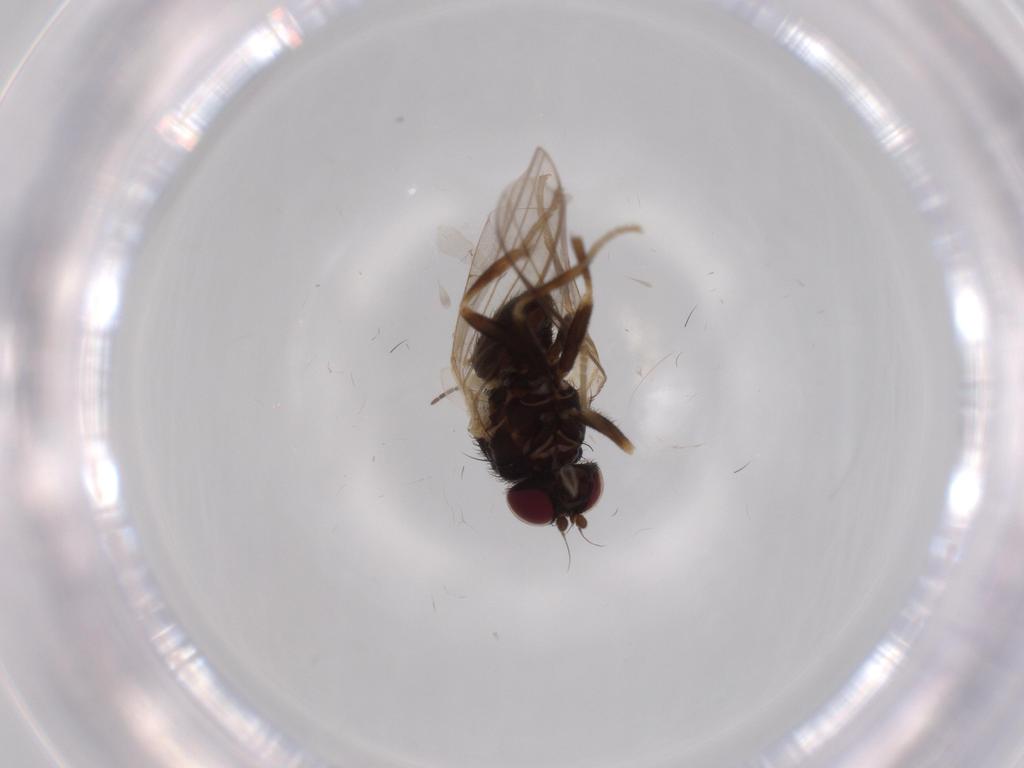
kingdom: Animalia
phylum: Arthropoda
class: Insecta
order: Diptera
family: Sciaridae
